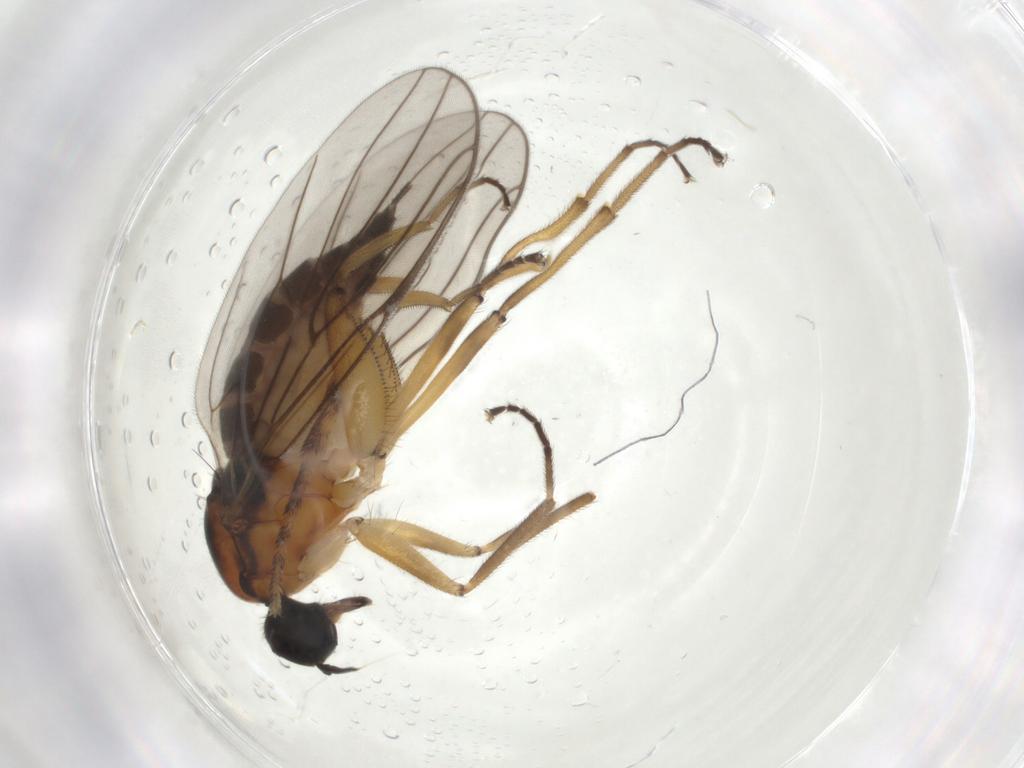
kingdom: Animalia
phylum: Arthropoda
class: Insecta
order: Diptera
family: Hybotidae
